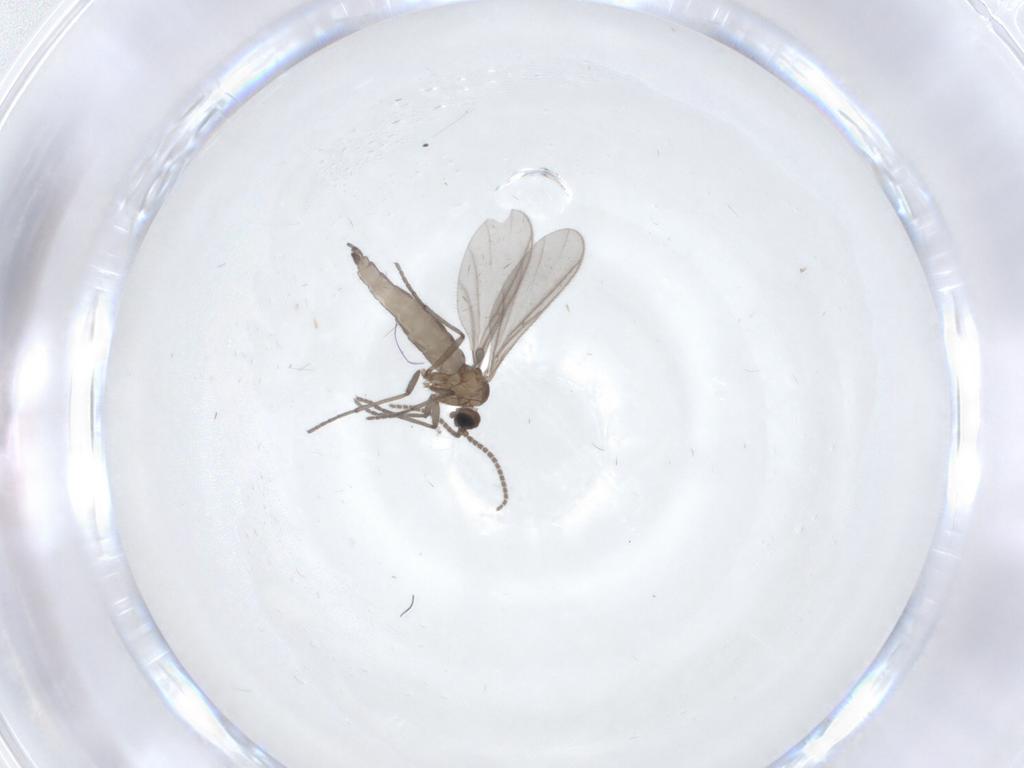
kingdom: Animalia
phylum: Arthropoda
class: Insecta
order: Diptera
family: Sciaridae
